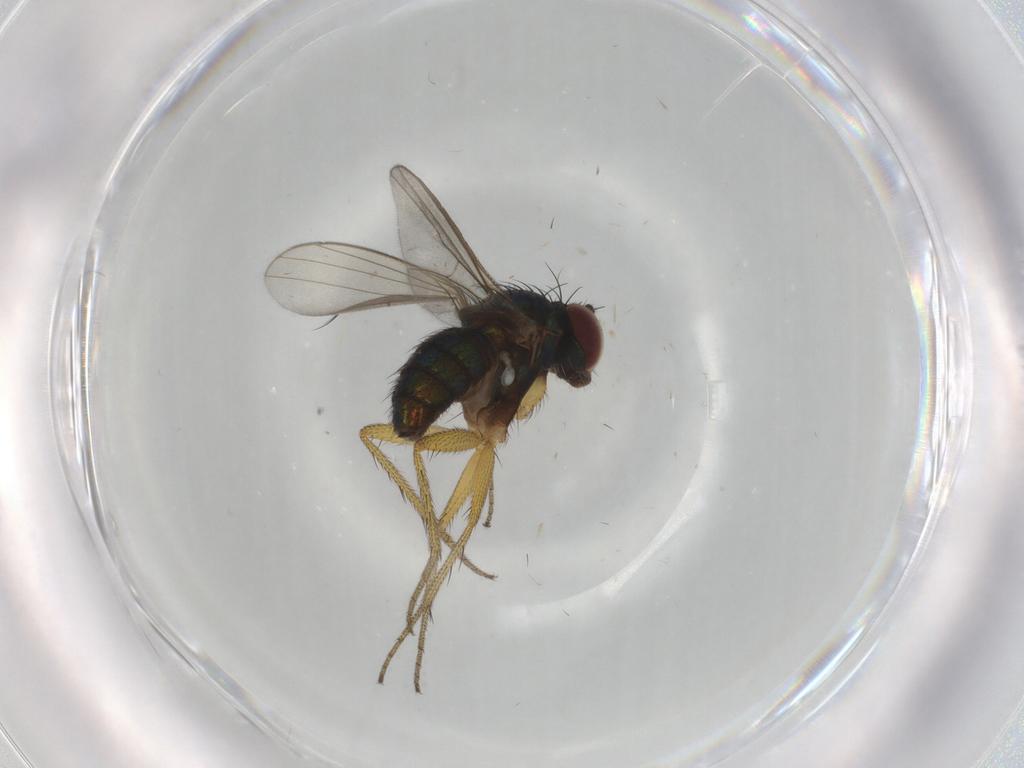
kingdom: Animalia
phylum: Arthropoda
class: Insecta
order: Diptera
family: Dolichopodidae
